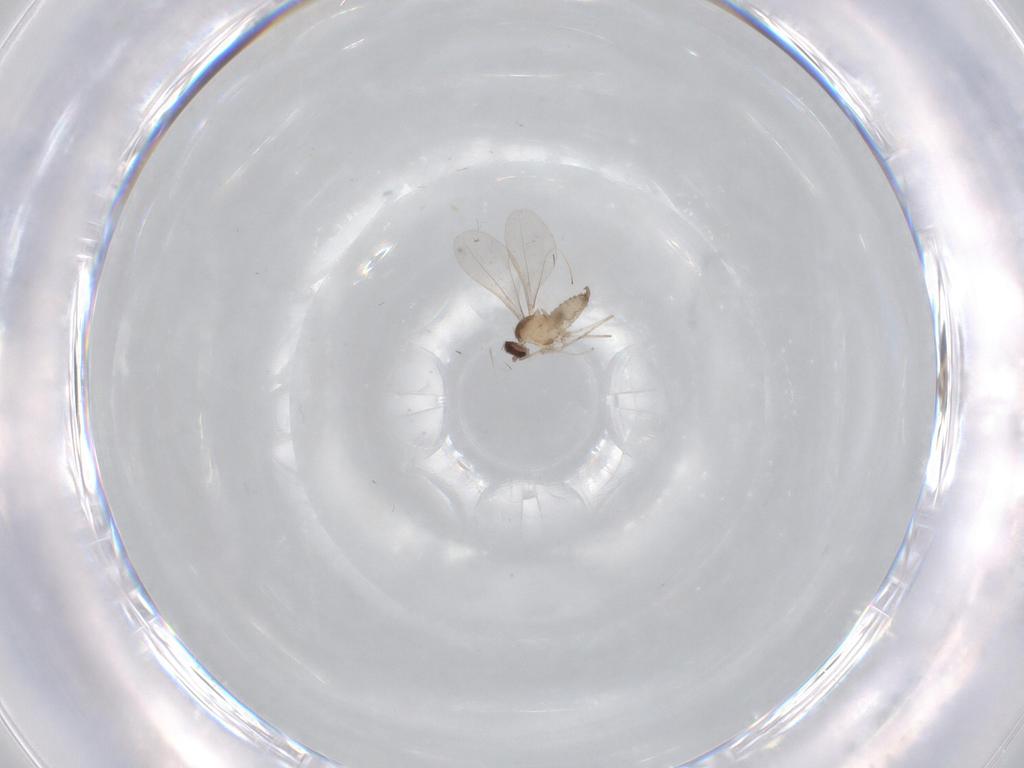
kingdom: Animalia
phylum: Arthropoda
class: Insecta
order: Diptera
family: Cecidomyiidae
